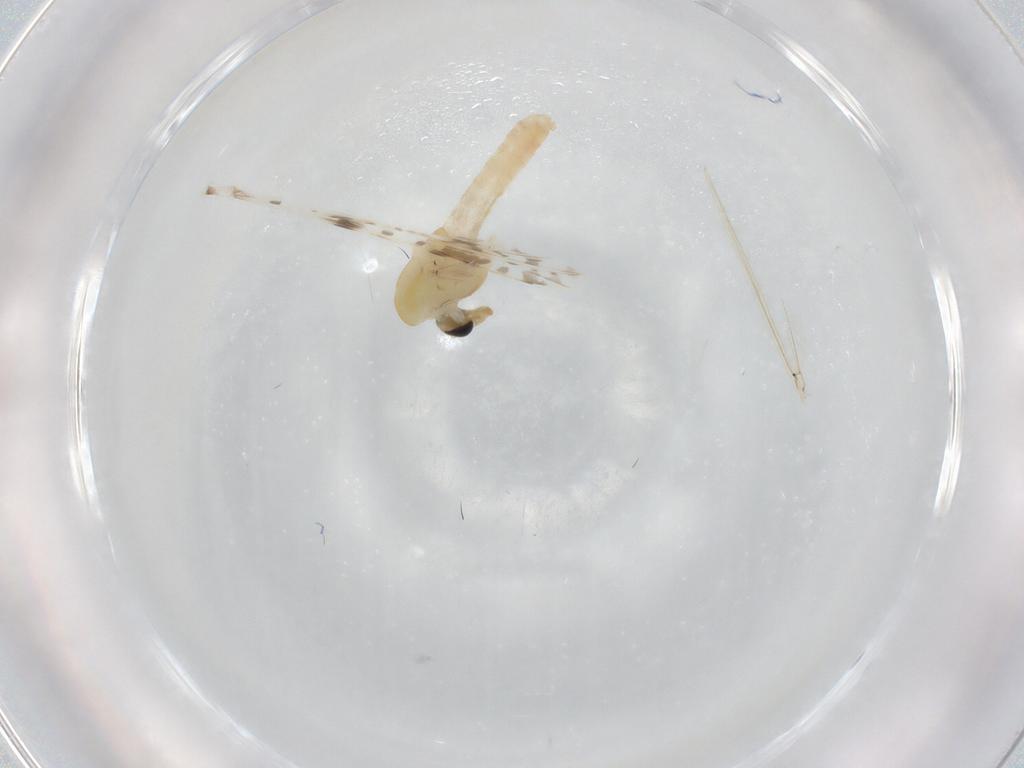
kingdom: Animalia
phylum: Arthropoda
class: Insecta
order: Diptera
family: Chironomidae
